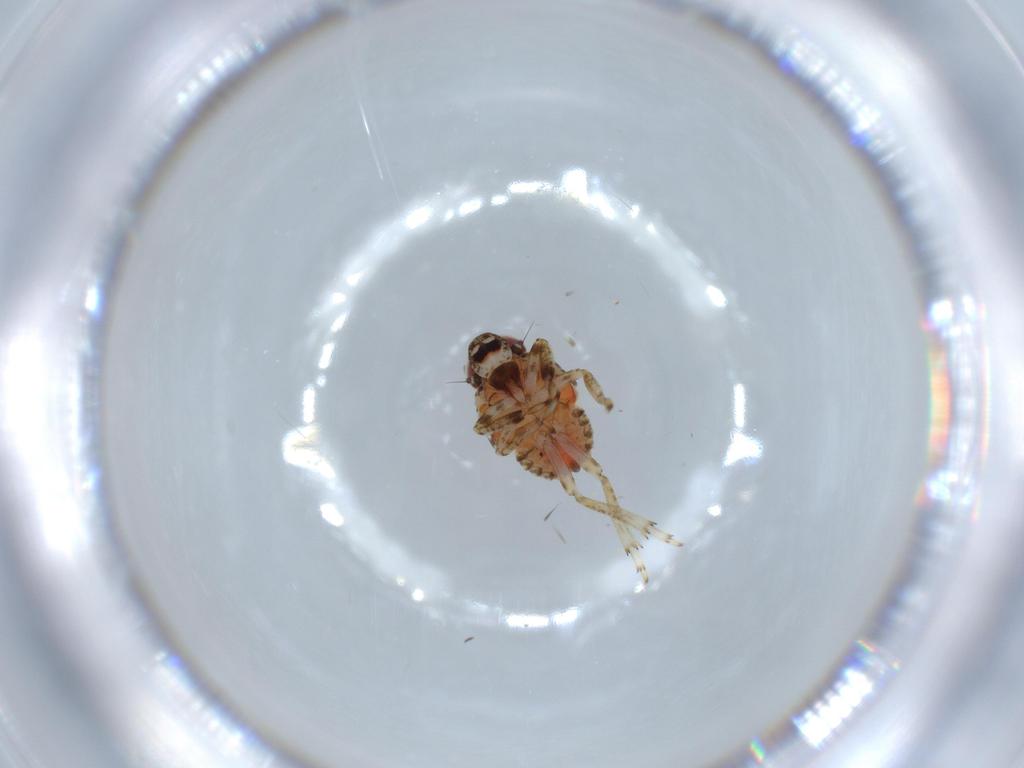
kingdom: Animalia
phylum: Arthropoda
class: Insecta
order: Hemiptera
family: Issidae
